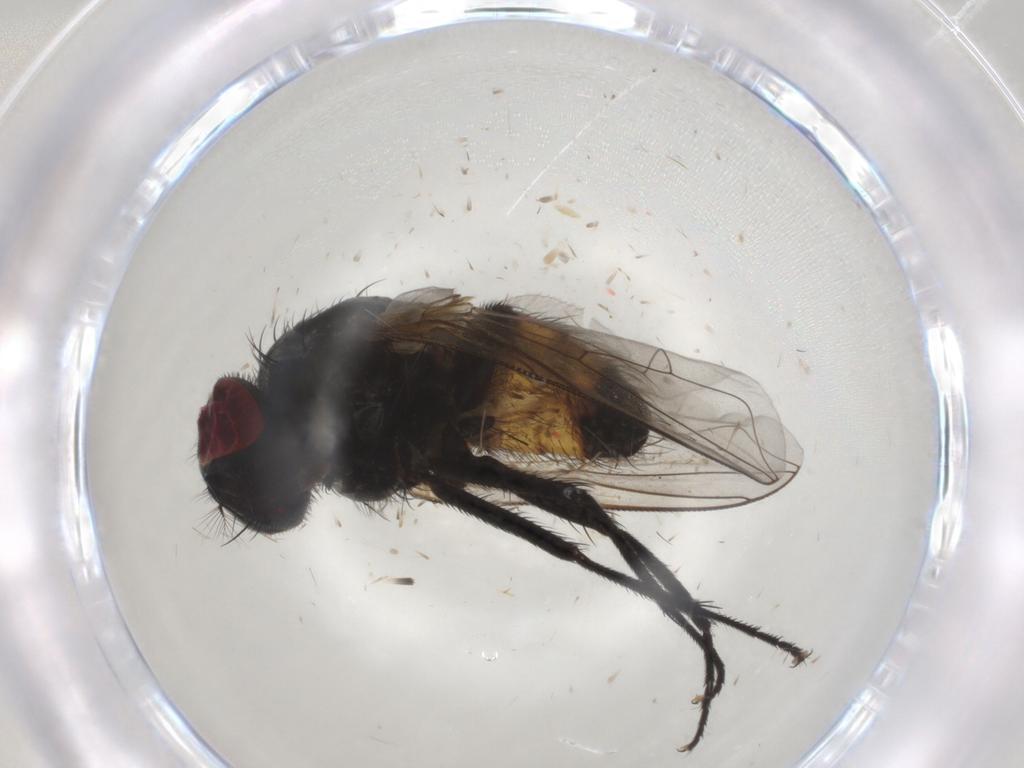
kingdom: Animalia
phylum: Arthropoda
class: Insecta
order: Diptera
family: Muscidae
